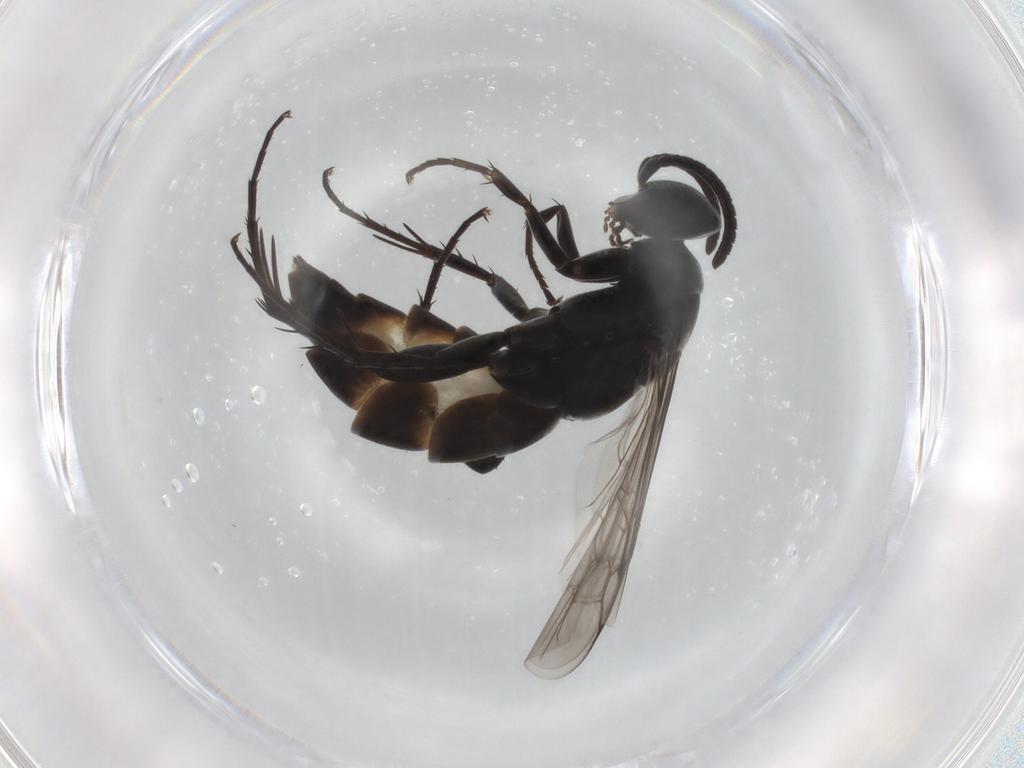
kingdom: Animalia
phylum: Arthropoda
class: Insecta
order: Hymenoptera
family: Pompilidae
